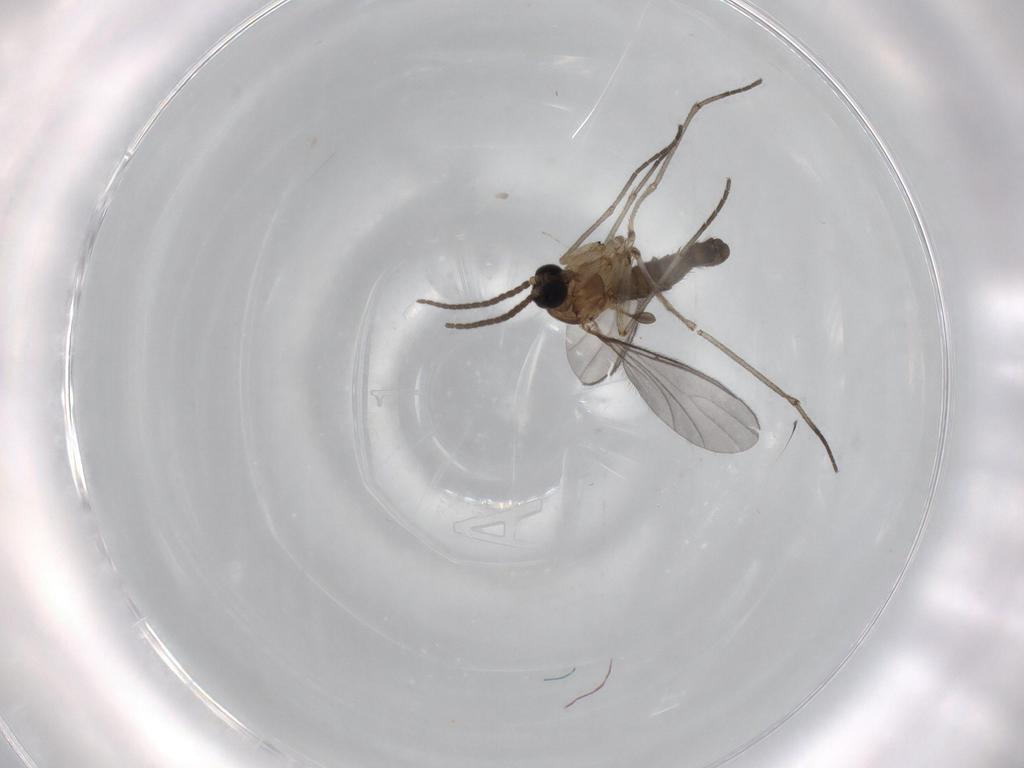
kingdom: Animalia
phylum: Arthropoda
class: Insecta
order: Diptera
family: Sciaridae
